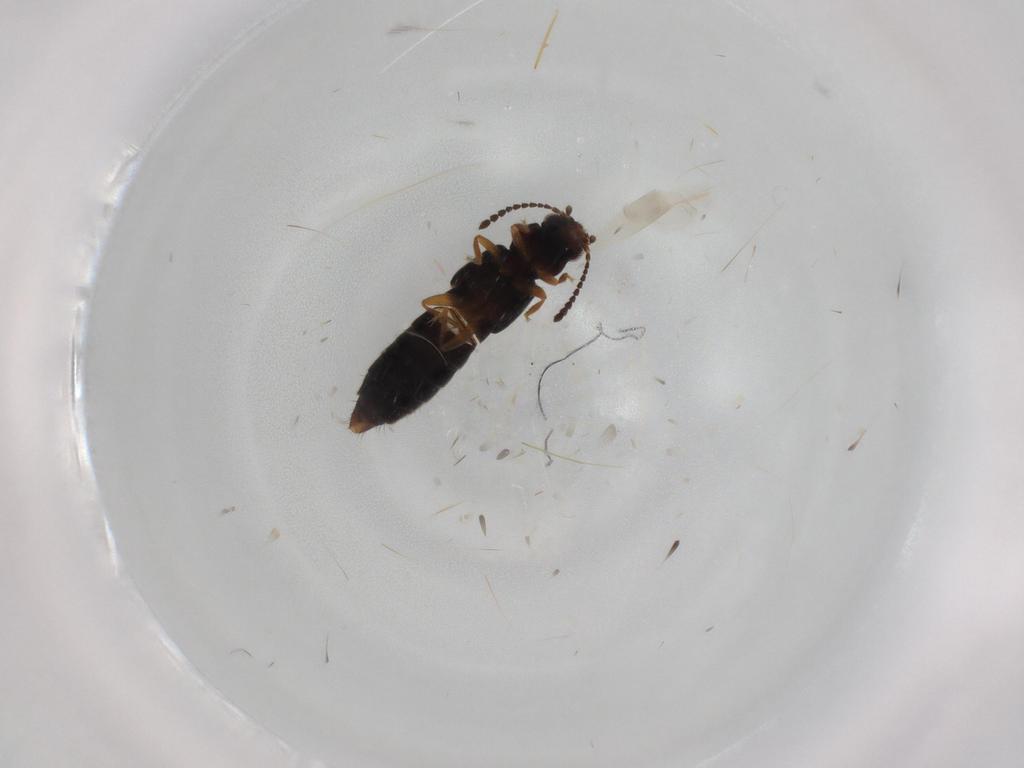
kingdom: Animalia
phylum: Arthropoda
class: Insecta
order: Coleoptera
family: Staphylinidae
